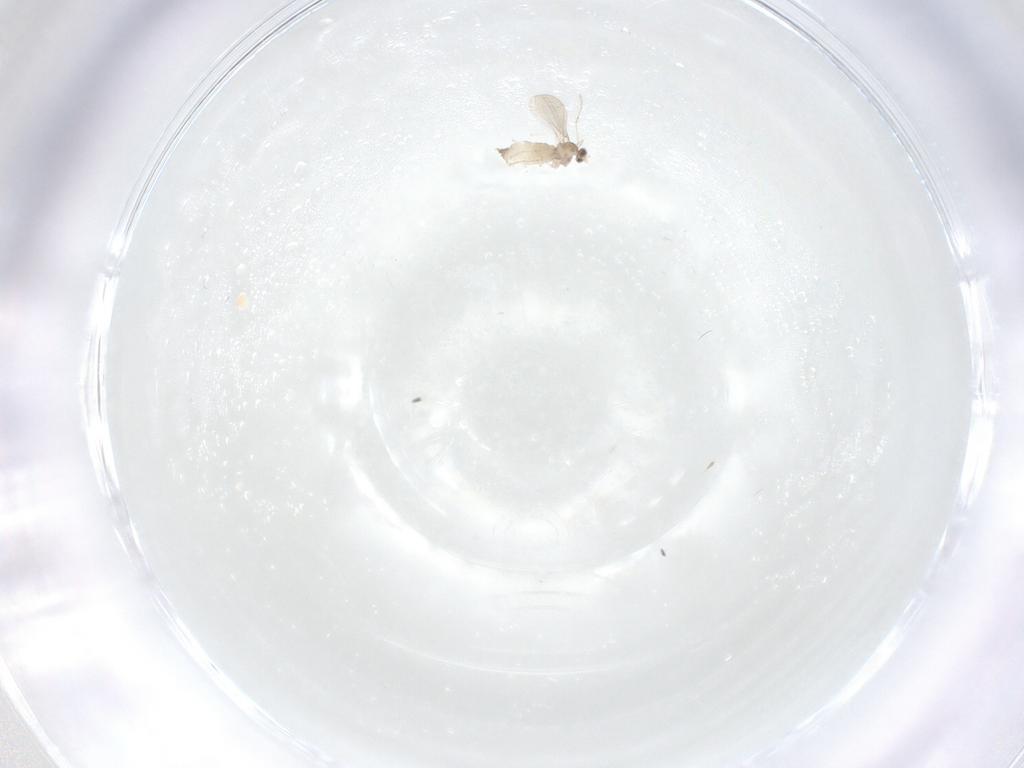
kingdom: Animalia
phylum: Arthropoda
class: Insecta
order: Diptera
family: Cecidomyiidae
